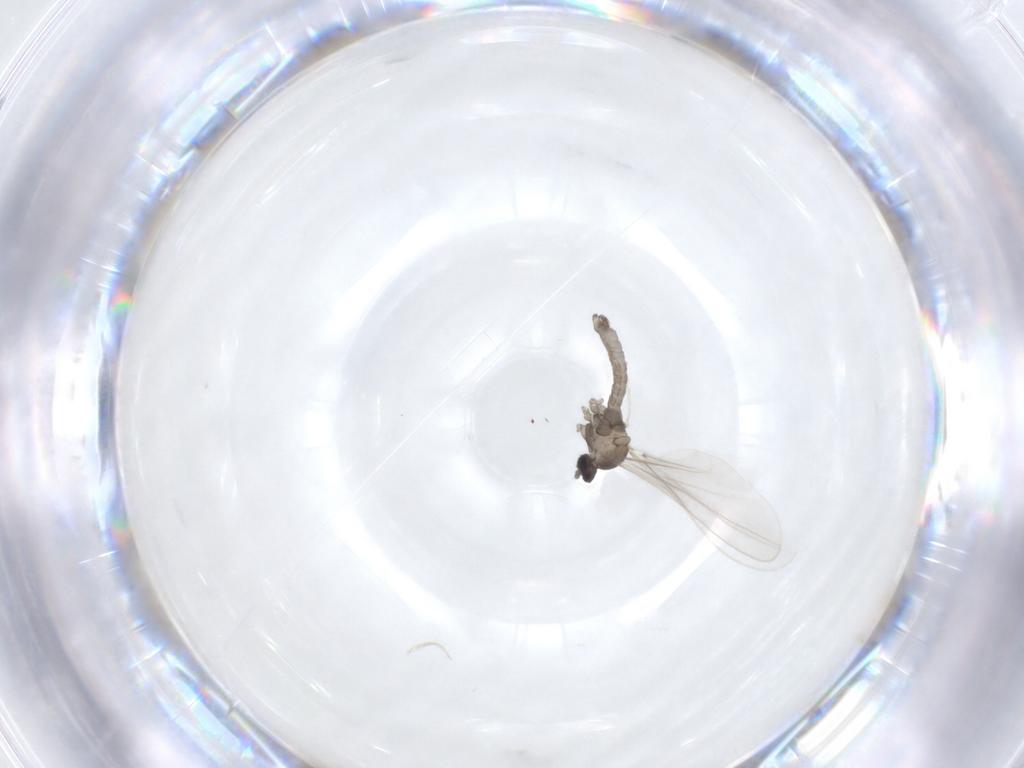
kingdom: Animalia
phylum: Arthropoda
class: Insecta
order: Diptera
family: Cecidomyiidae
